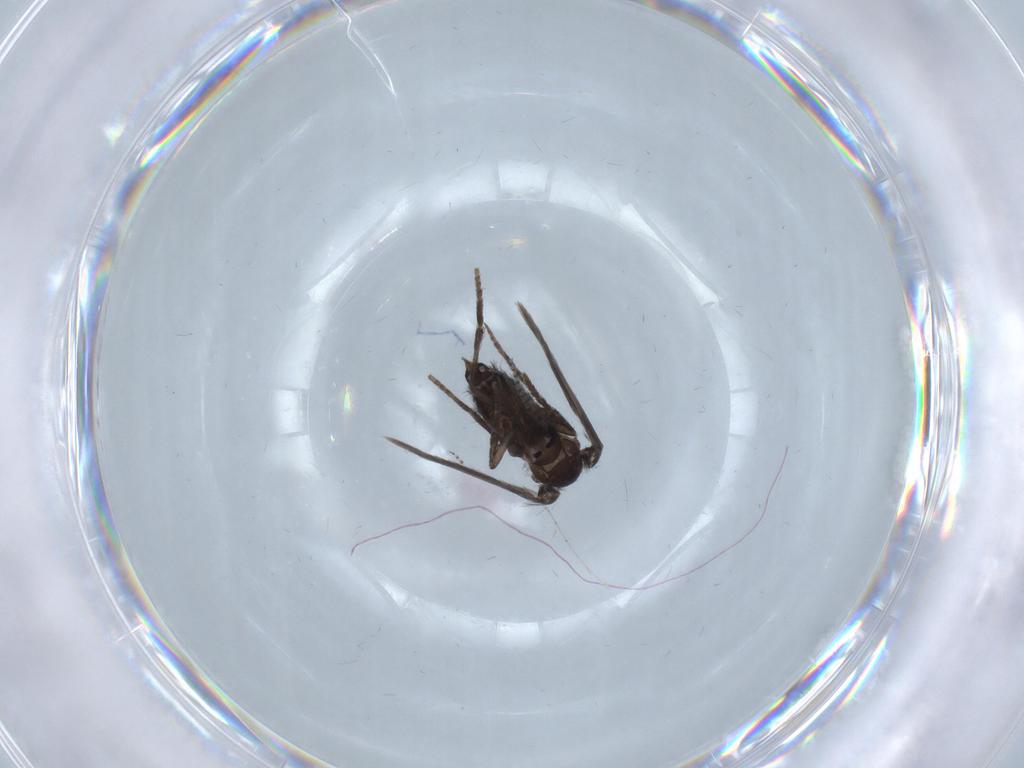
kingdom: Animalia
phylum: Arthropoda
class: Insecta
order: Diptera
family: Psychodidae
